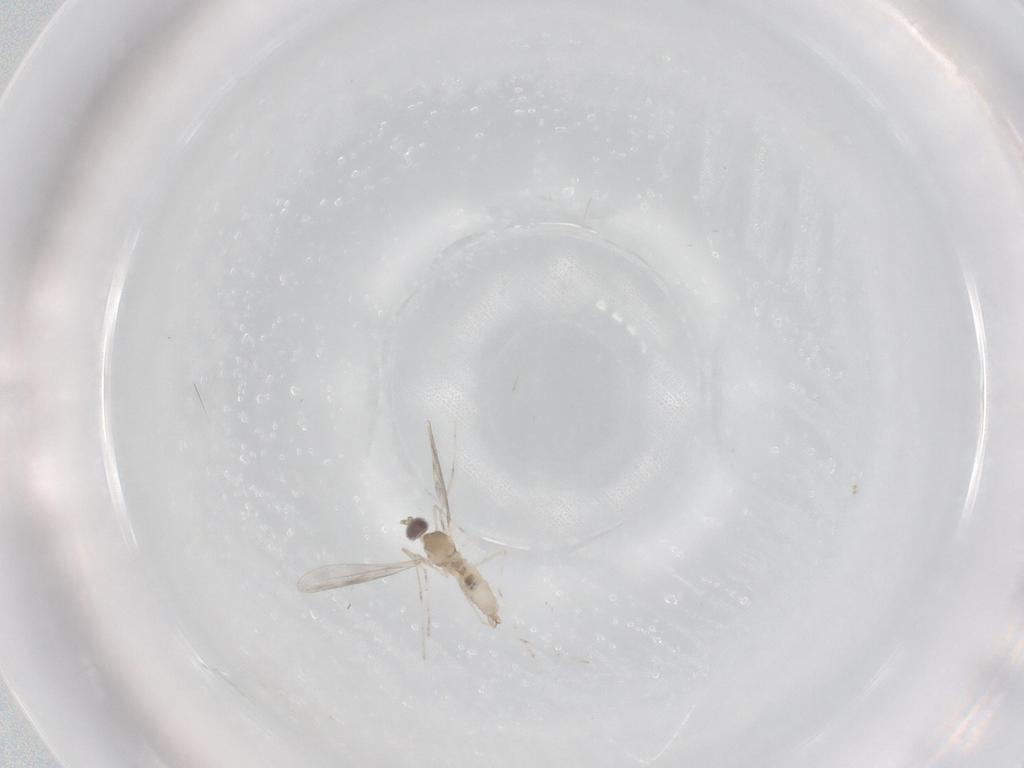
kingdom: Animalia
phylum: Arthropoda
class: Insecta
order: Diptera
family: Cecidomyiidae
